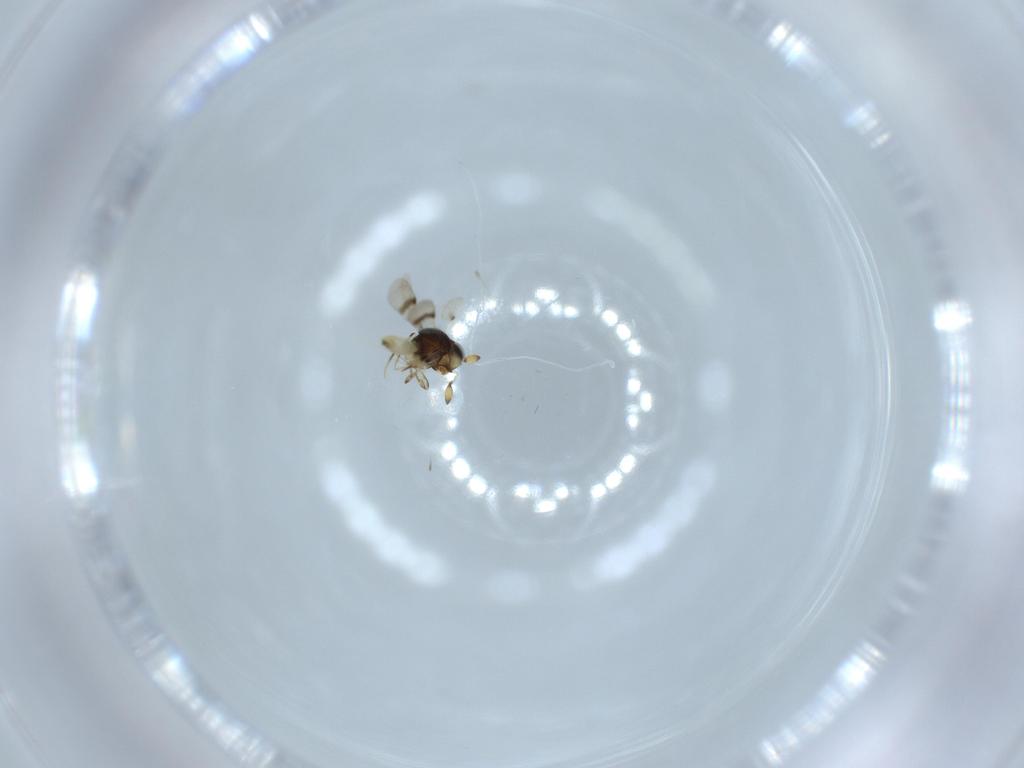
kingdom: Animalia
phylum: Arthropoda
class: Insecta
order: Hymenoptera
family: Scelionidae
